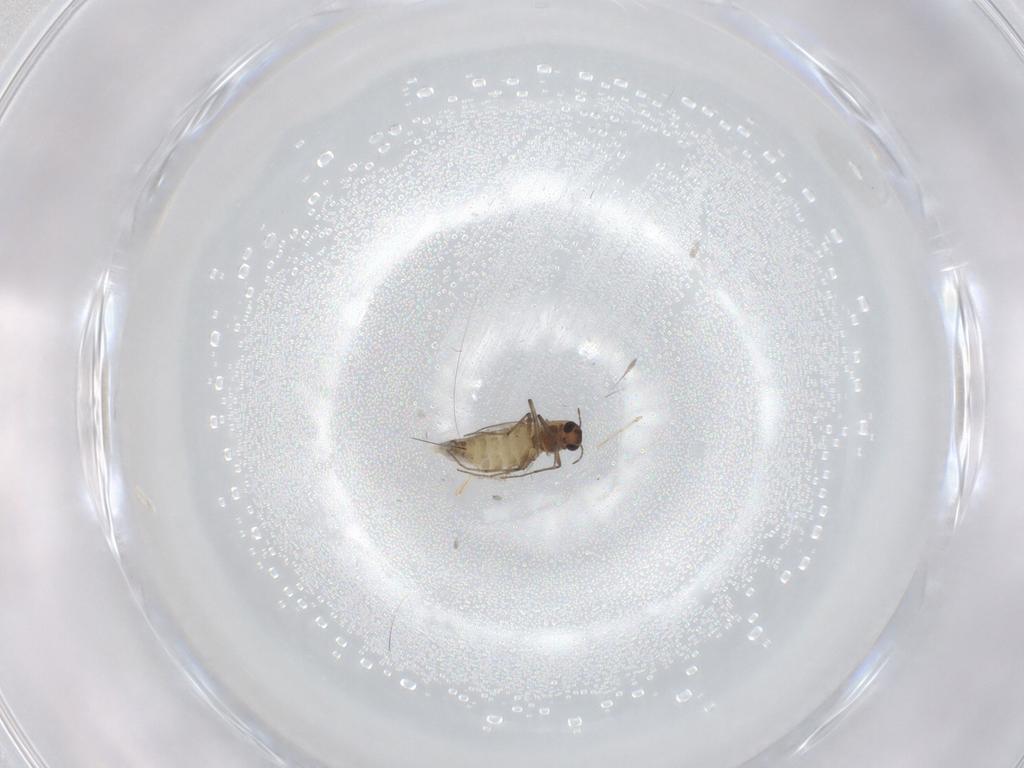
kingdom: Animalia
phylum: Arthropoda
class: Insecta
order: Diptera
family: Chironomidae
